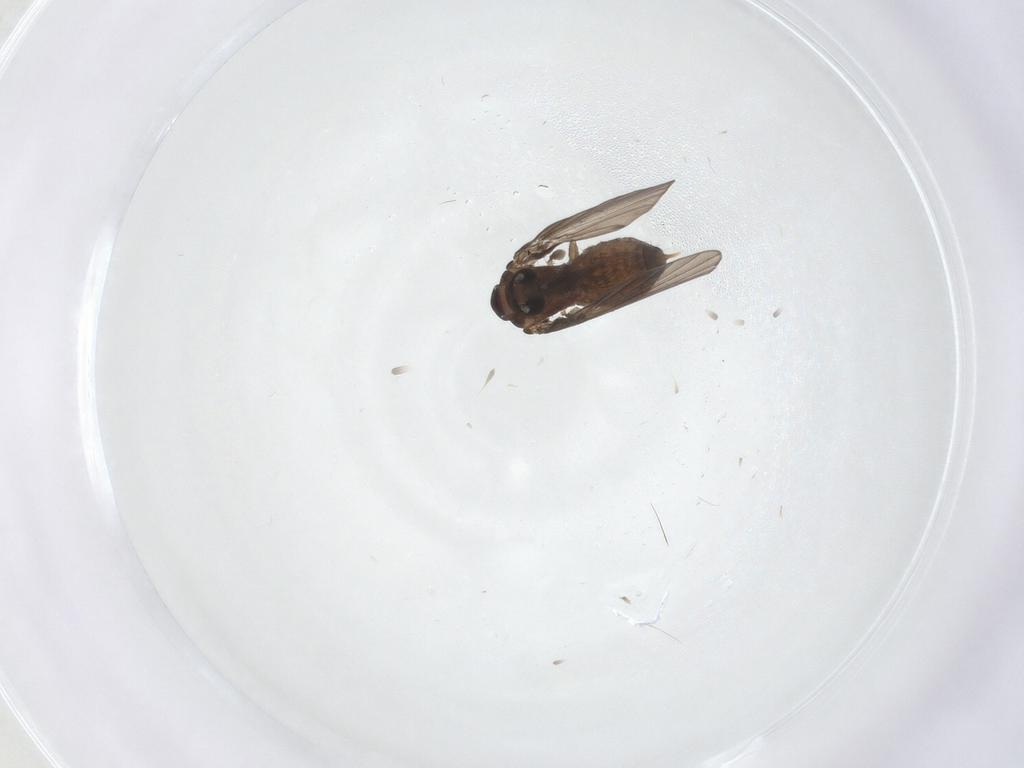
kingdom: Animalia
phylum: Arthropoda
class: Insecta
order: Diptera
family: Psychodidae
